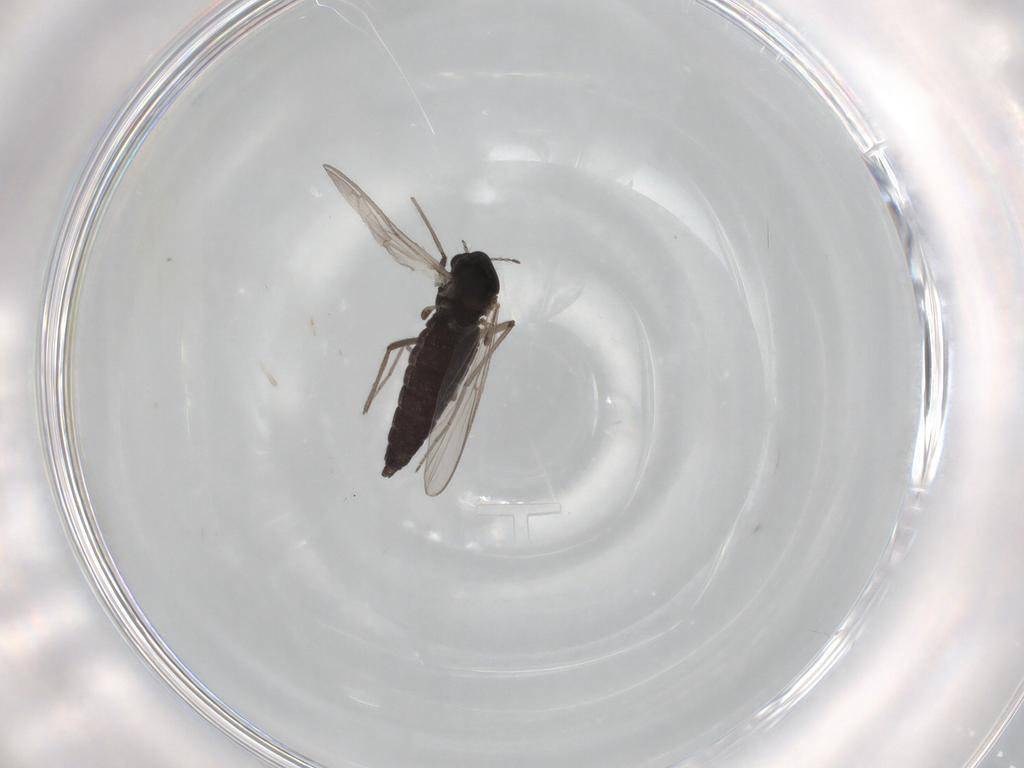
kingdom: Animalia
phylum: Arthropoda
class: Insecta
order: Diptera
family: Chironomidae
